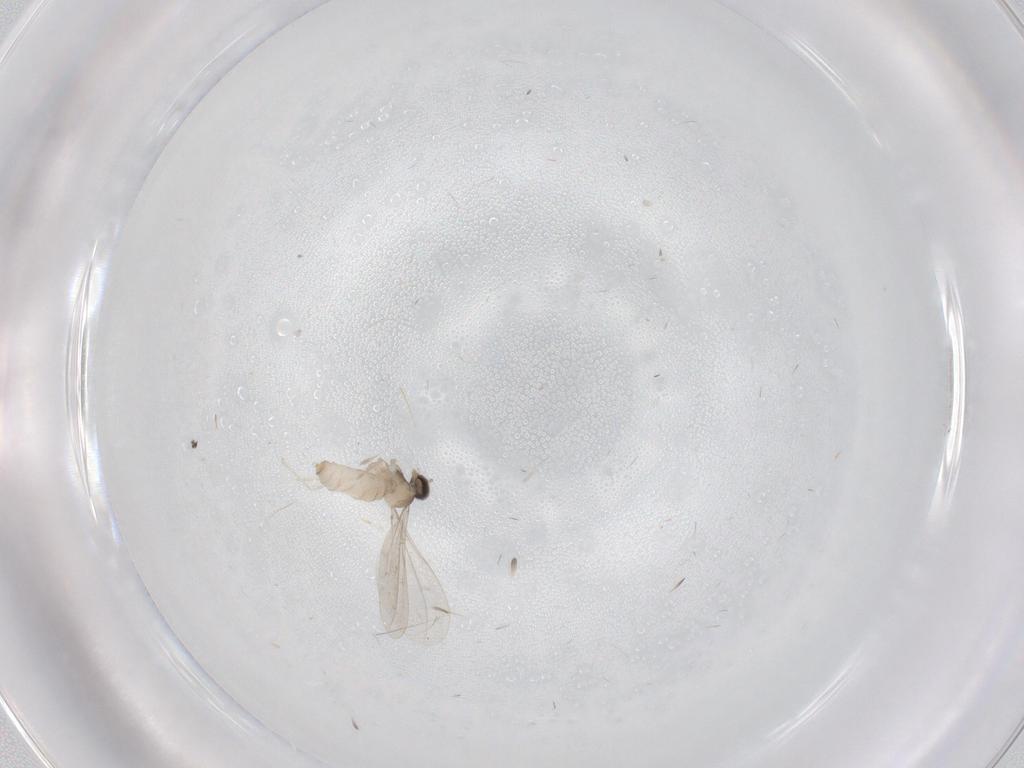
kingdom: Animalia
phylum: Arthropoda
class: Insecta
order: Diptera
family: Cecidomyiidae
